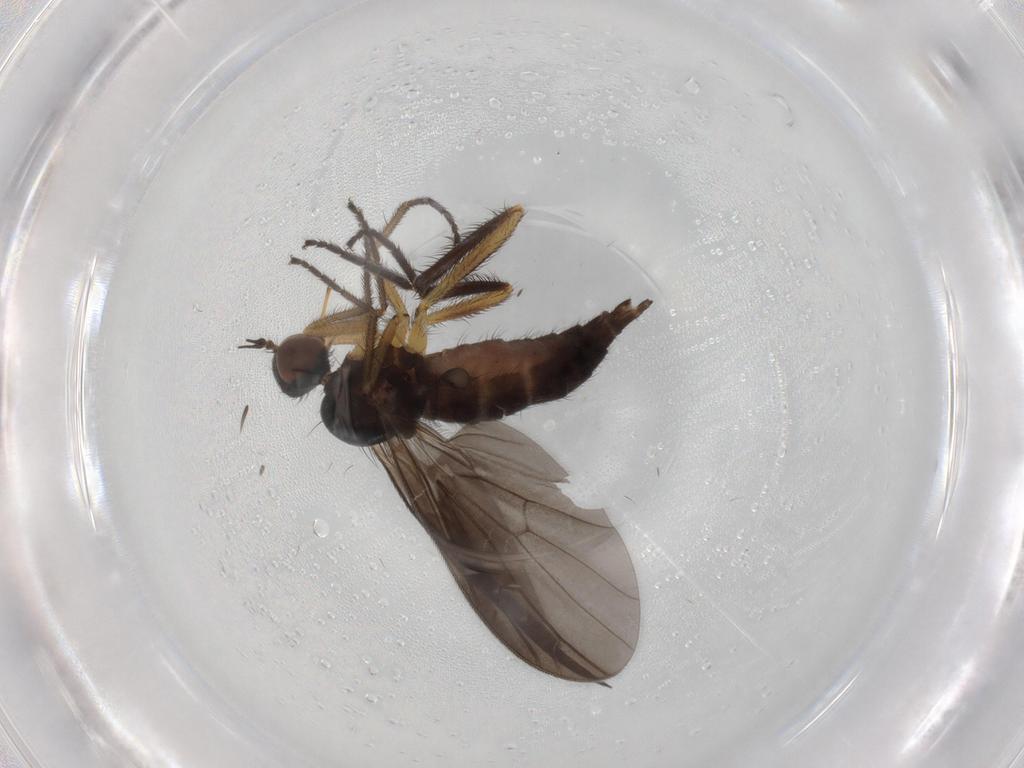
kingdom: Animalia
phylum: Arthropoda
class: Insecta
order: Diptera
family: Empididae
